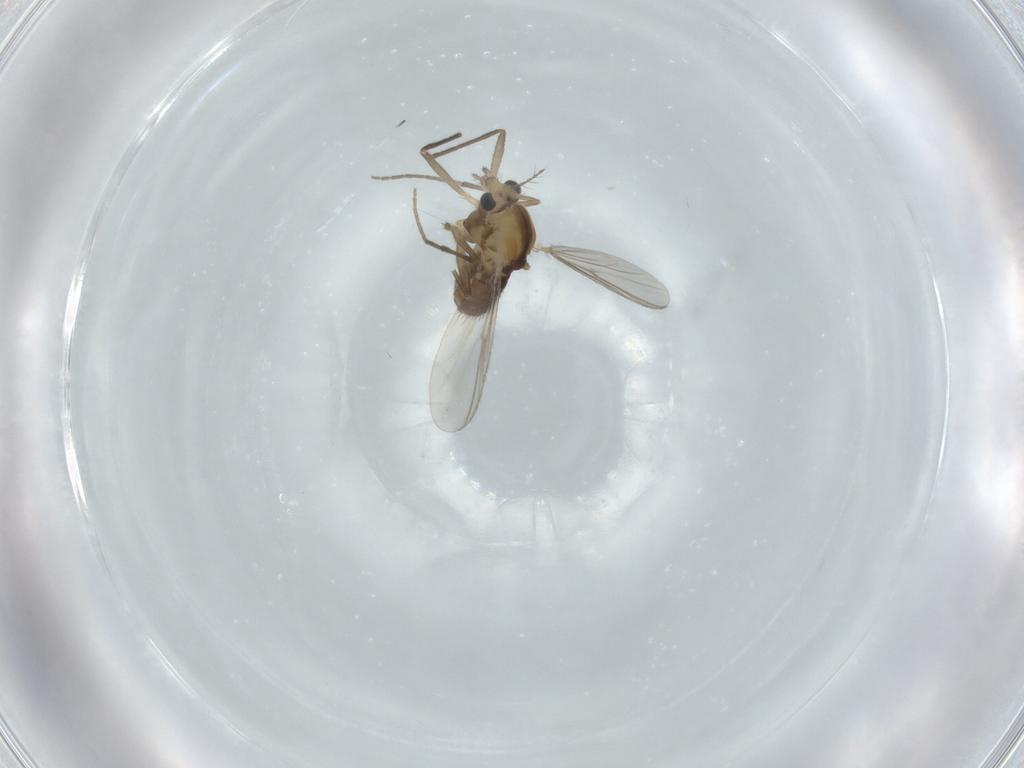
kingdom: Animalia
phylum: Arthropoda
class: Insecta
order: Diptera
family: Chironomidae
